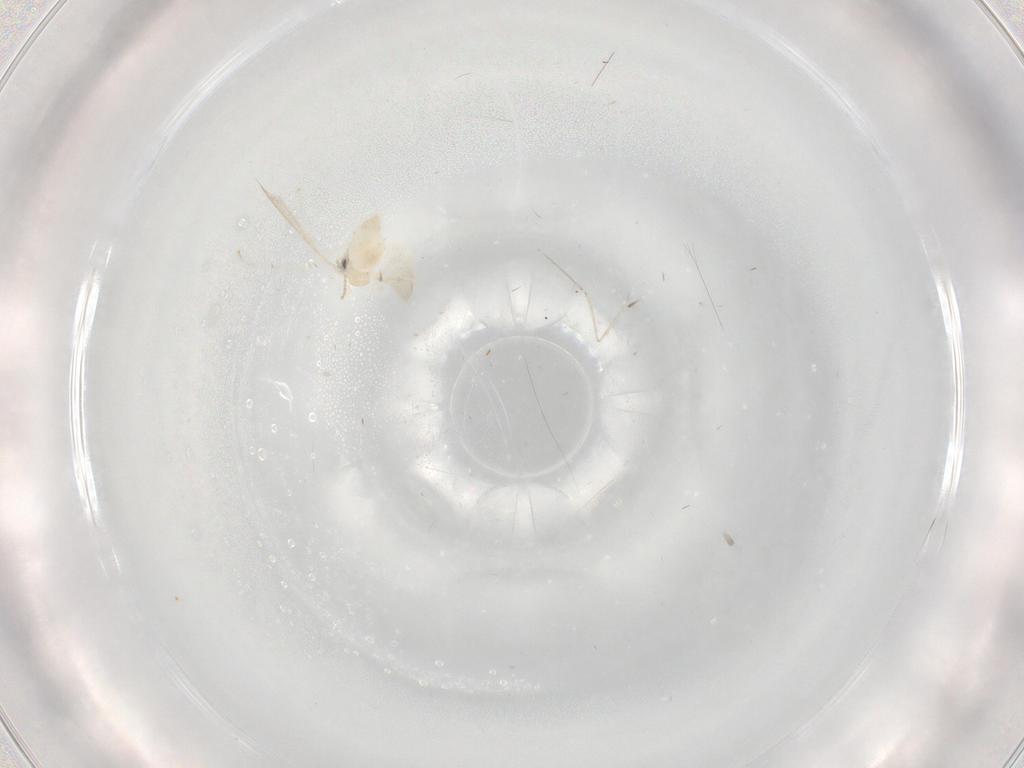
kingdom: Animalia
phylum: Arthropoda
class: Insecta
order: Diptera
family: Cecidomyiidae
